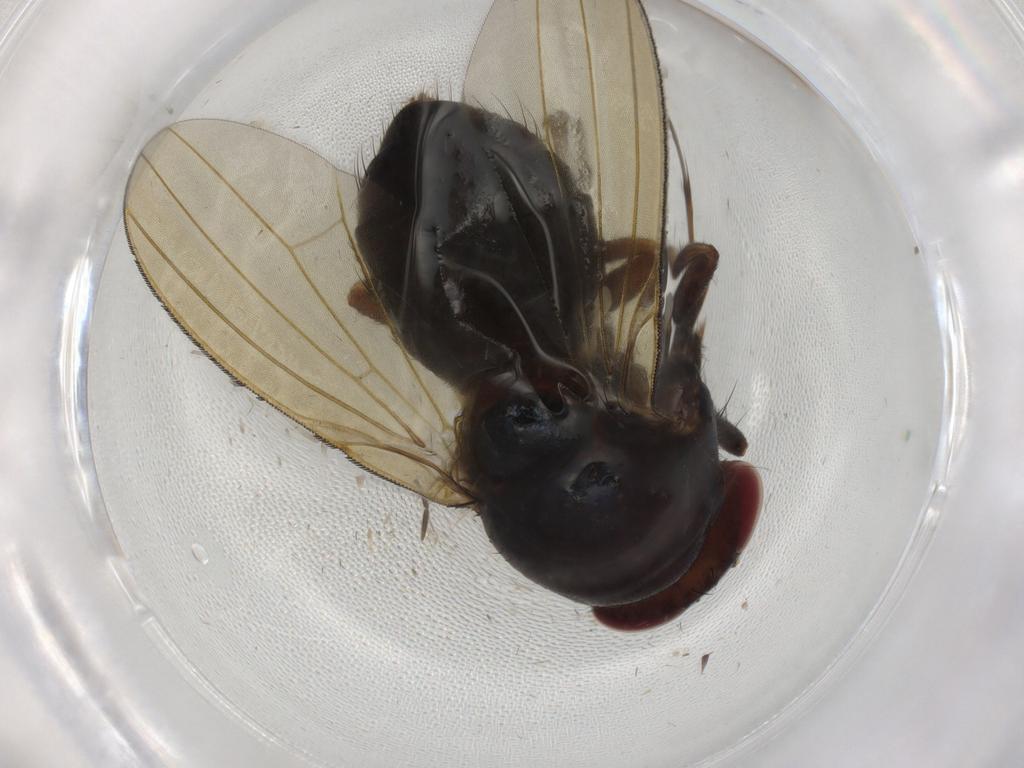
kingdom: Animalia
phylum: Arthropoda
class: Insecta
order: Diptera
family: Phoridae
